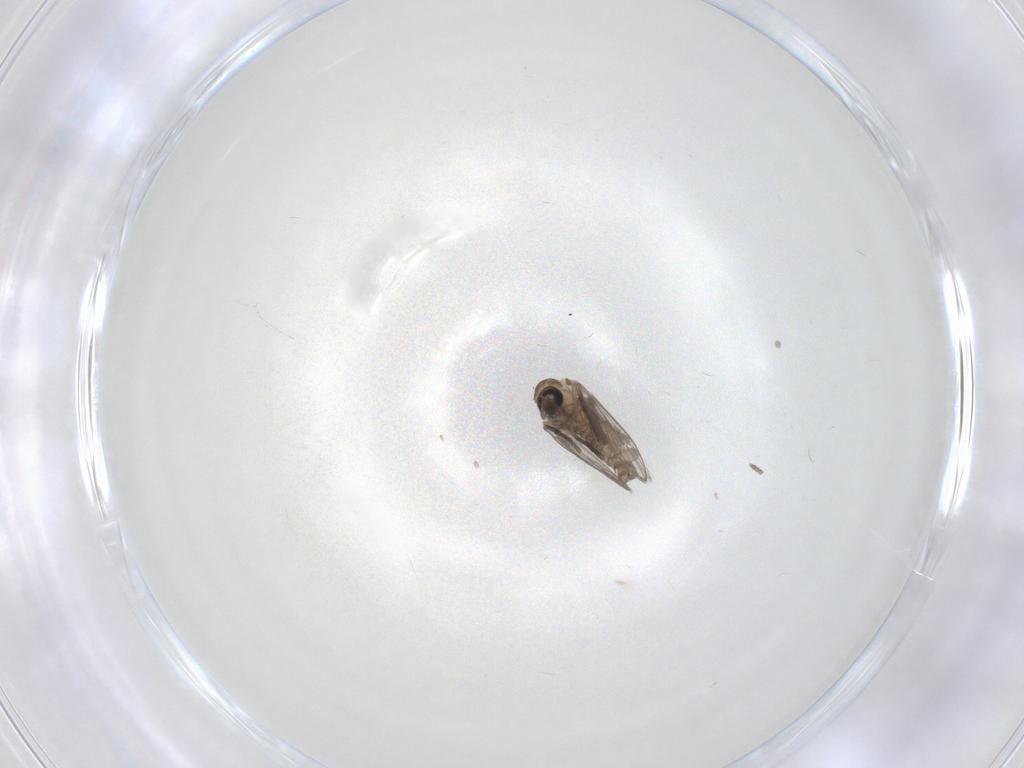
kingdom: Animalia
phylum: Arthropoda
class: Insecta
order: Diptera
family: Psychodidae
